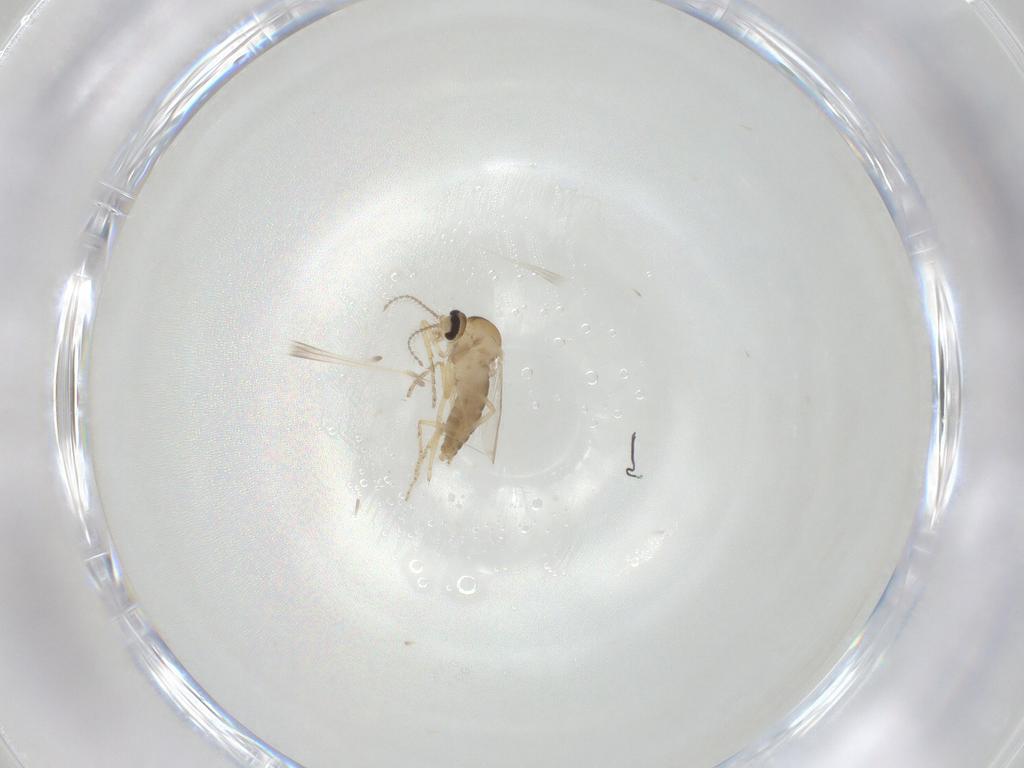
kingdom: Animalia
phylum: Arthropoda
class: Insecta
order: Diptera
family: Ceratopogonidae
